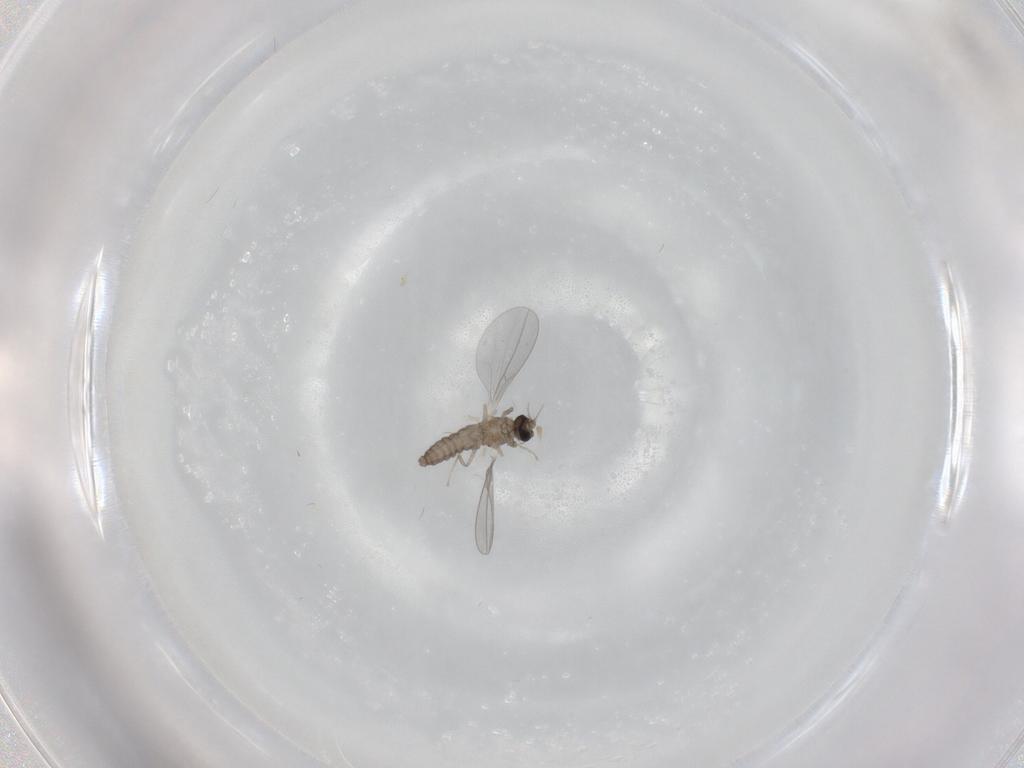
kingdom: Animalia
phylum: Arthropoda
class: Insecta
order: Diptera
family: Cecidomyiidae
